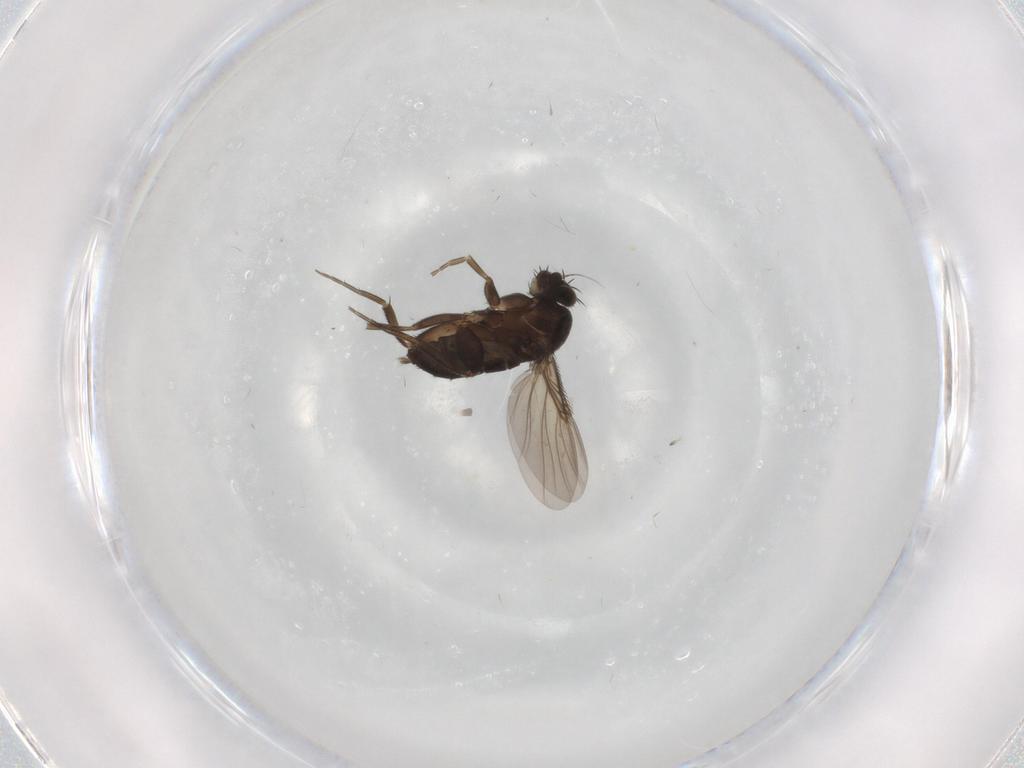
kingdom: Animalia
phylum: Arthropoda
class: Insecta
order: Diptera
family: Phoridae
